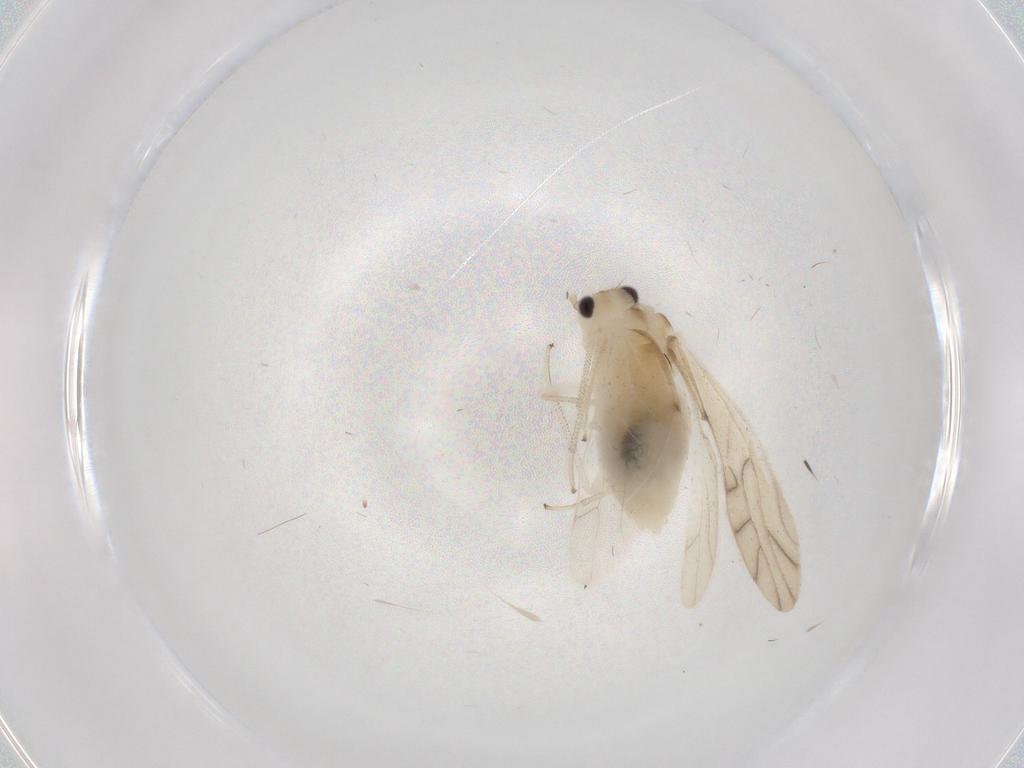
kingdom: Animalia
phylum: Arthropoda
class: Insecta
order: Psocodea
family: Caeciliusidae
